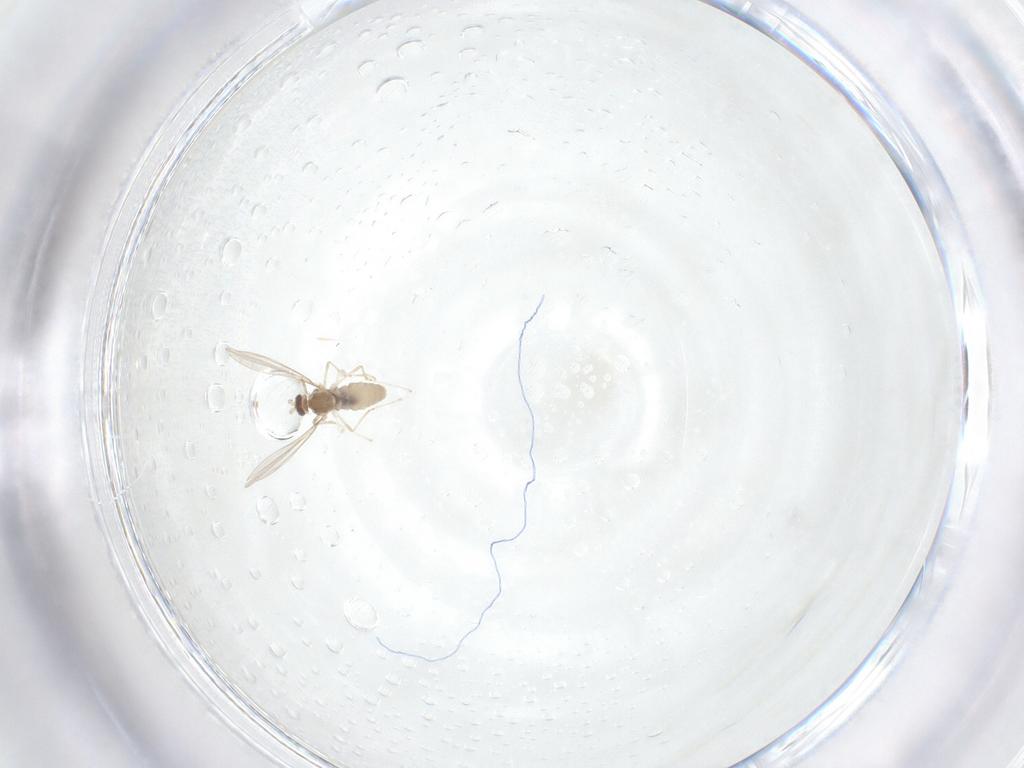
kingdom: Animalia
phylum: Arthropoda
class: Insecta
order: Diptera
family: Cecidomyiidae
